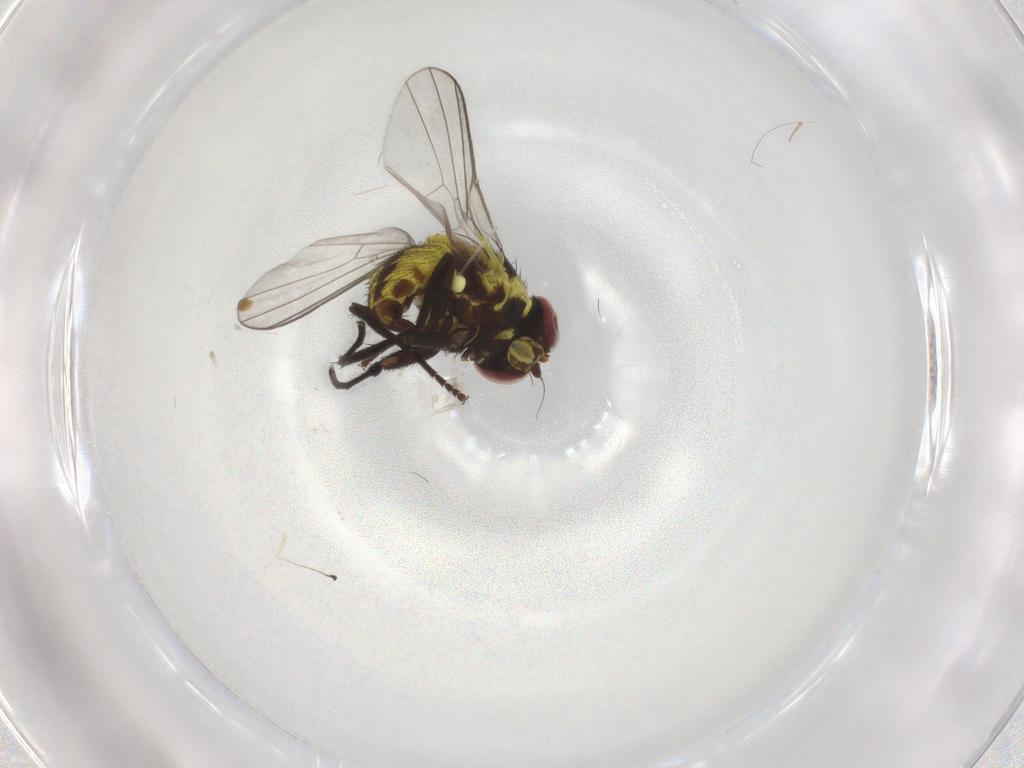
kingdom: Animalia
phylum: Arthropoda
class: Insecta
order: Diptera
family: Agromyzidae
